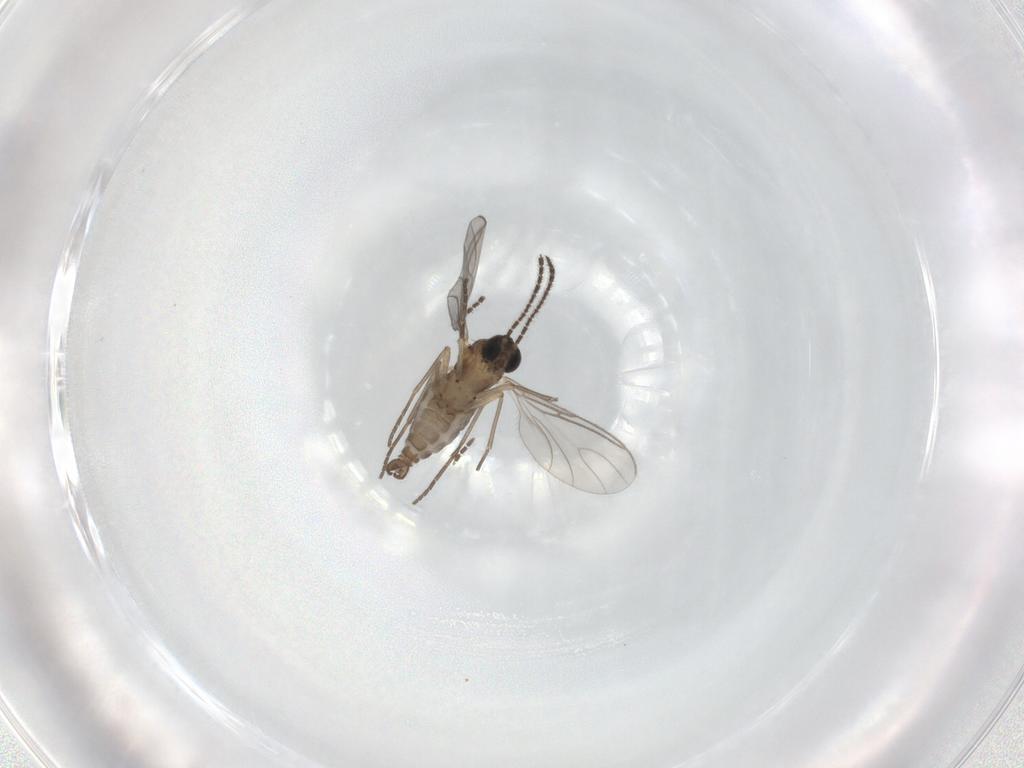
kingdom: Animalia
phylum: Arthropoda
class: Insecta
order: Diptera
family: Sciaridae
